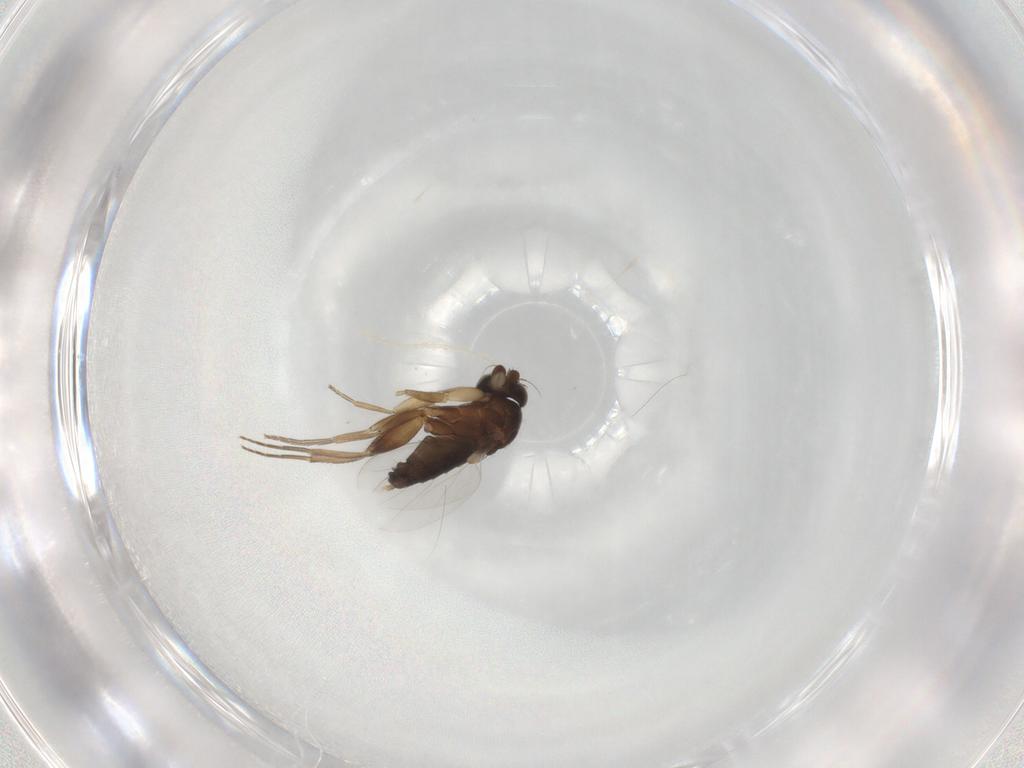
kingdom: Animalia
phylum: Arthropoda
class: Insecta
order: Diptera
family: Phoridae
